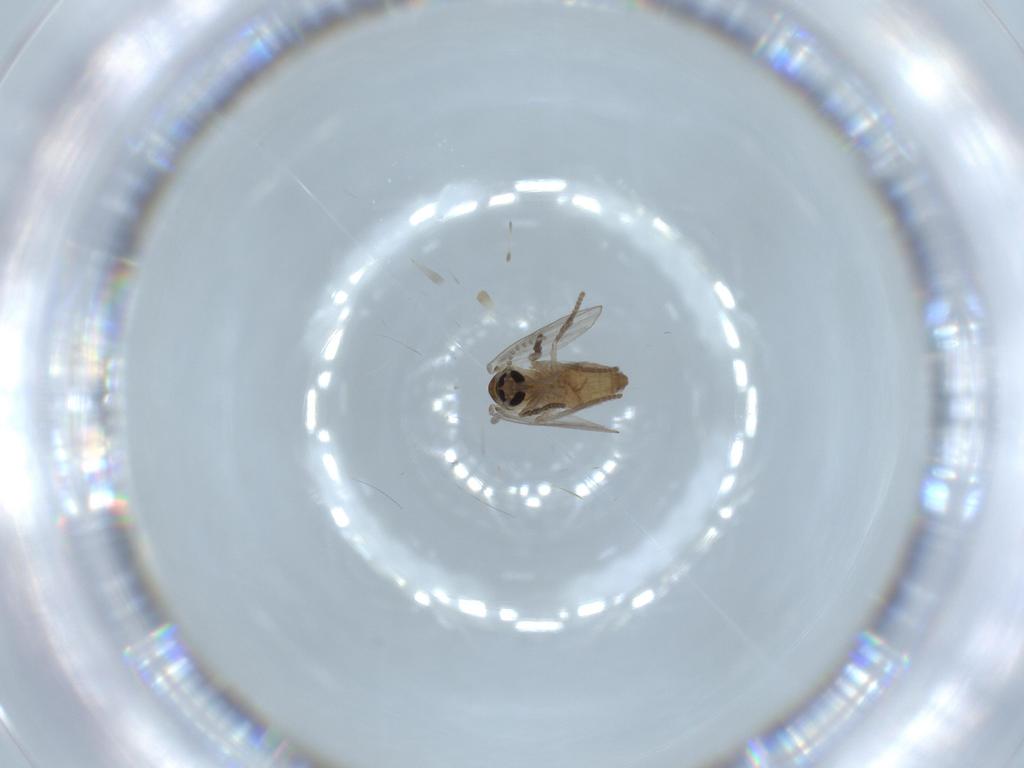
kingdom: Animalia
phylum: Arthropoda
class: Insecta
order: Diptera
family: Psychodidae
